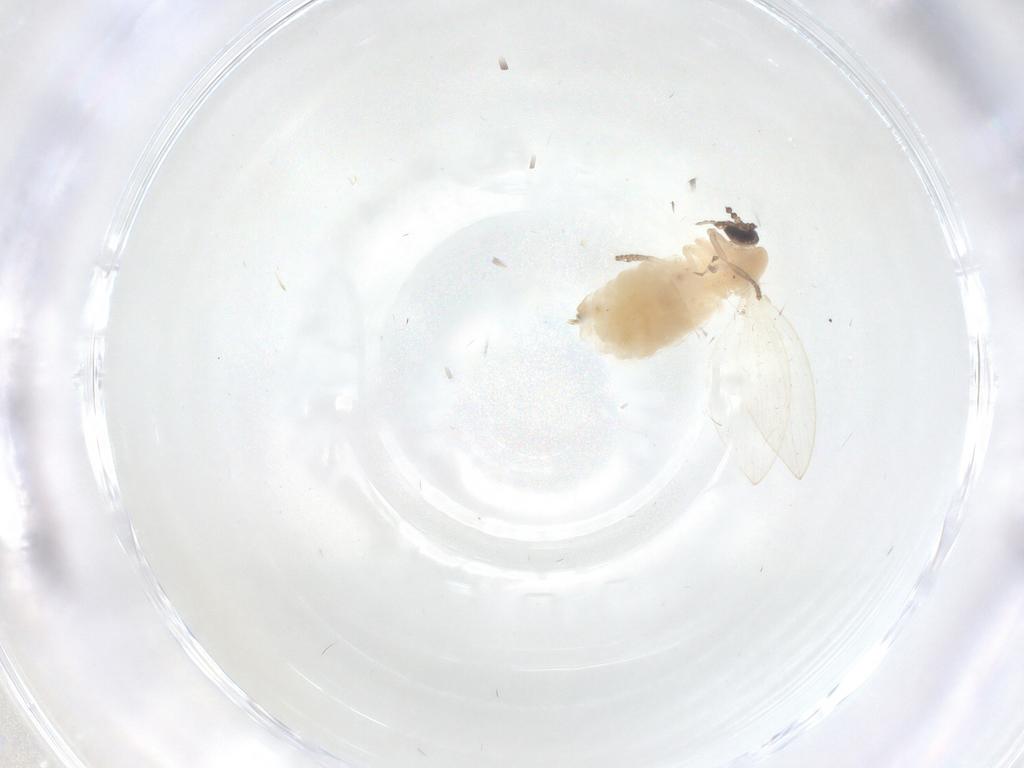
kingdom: Animalia
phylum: Arthropoda
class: Insecta
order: Diptera
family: Psychodidae
